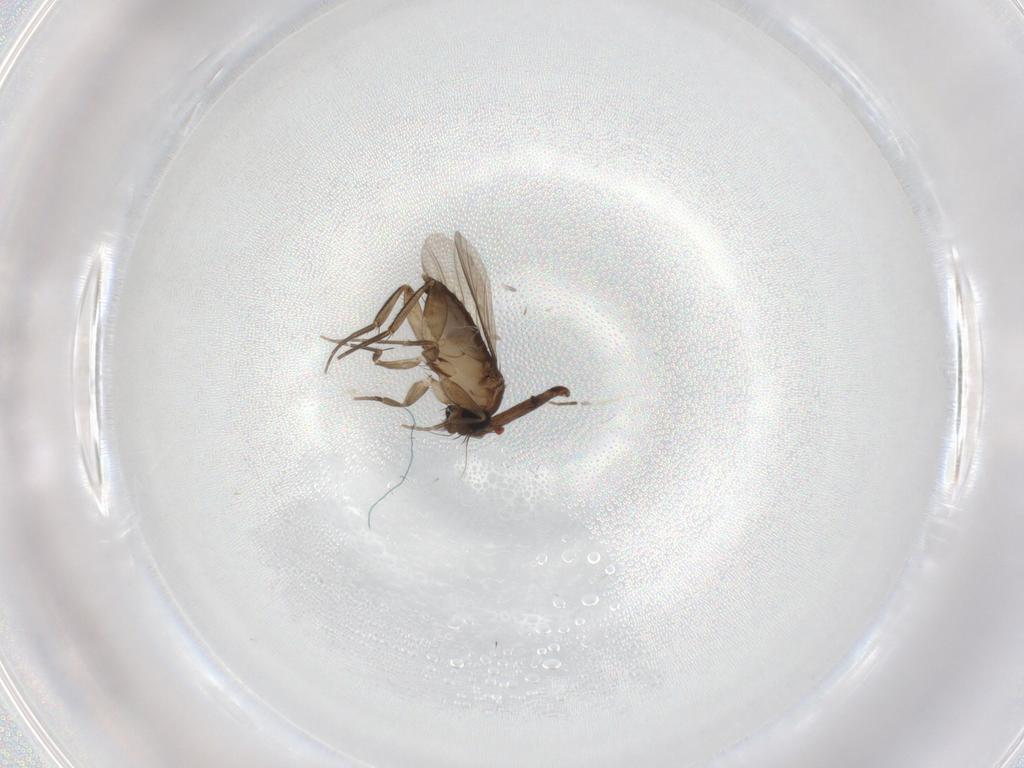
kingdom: Animalia
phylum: Arthropoda
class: Insecta
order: Diptera
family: Phoridae
